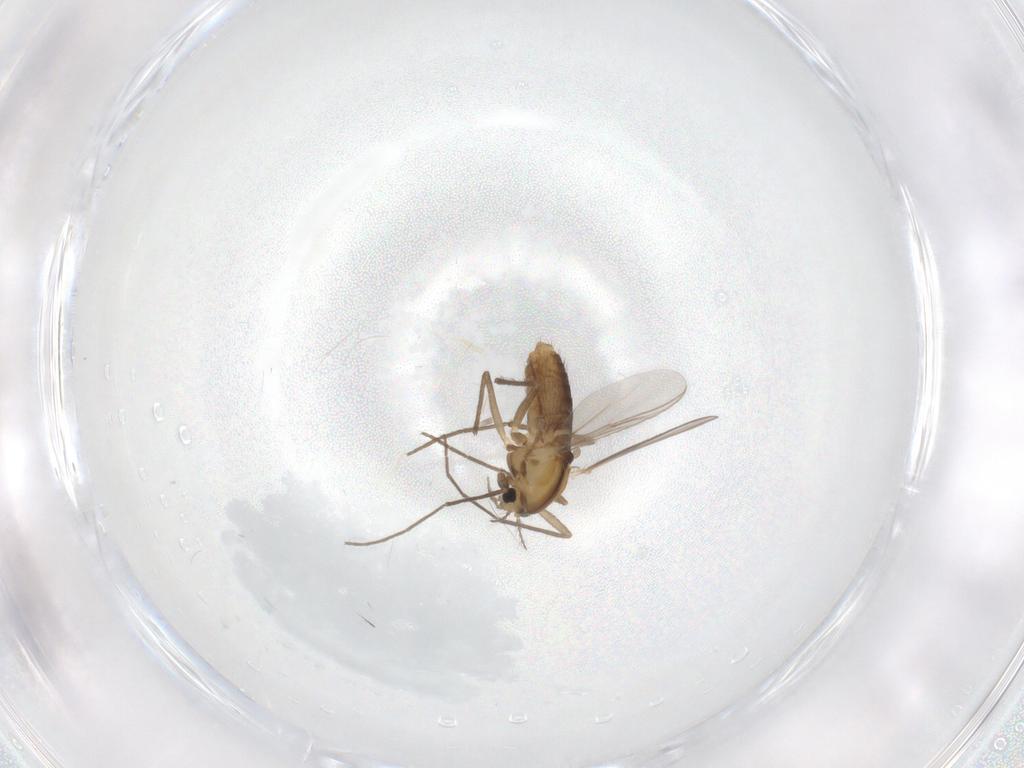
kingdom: Animalia
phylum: Arthropoda
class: Insecta
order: Diptera
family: Chironomidae
